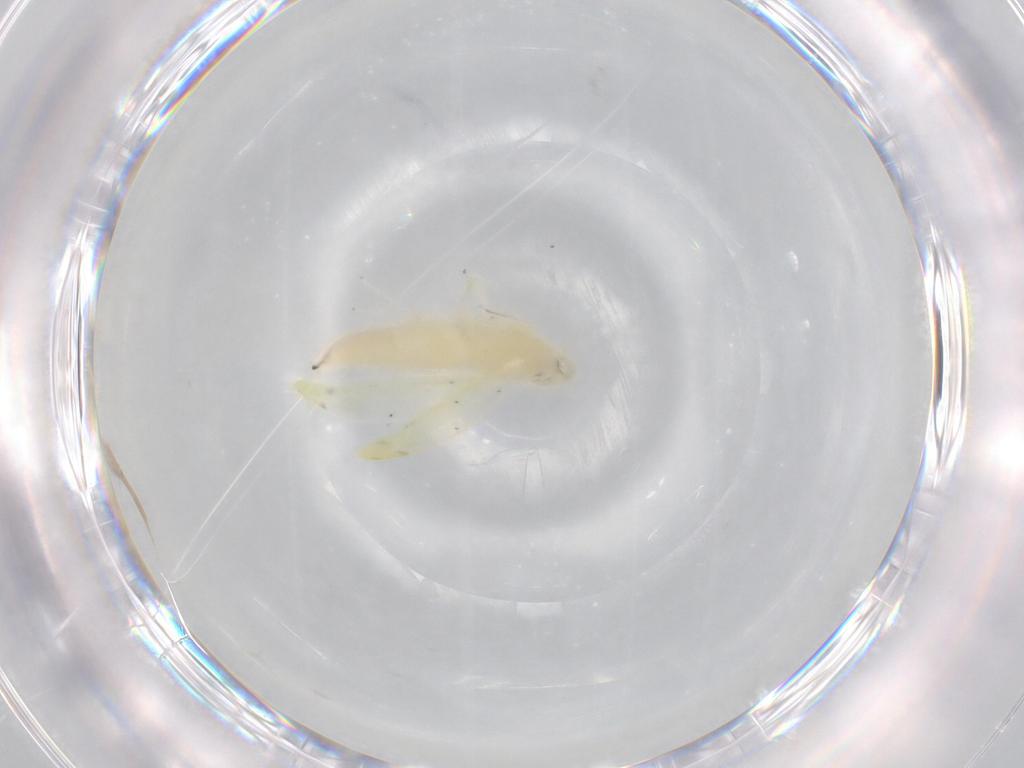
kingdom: Animalia
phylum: Arthropoda
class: Insecta
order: Hemiptera
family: Cicadellidae
